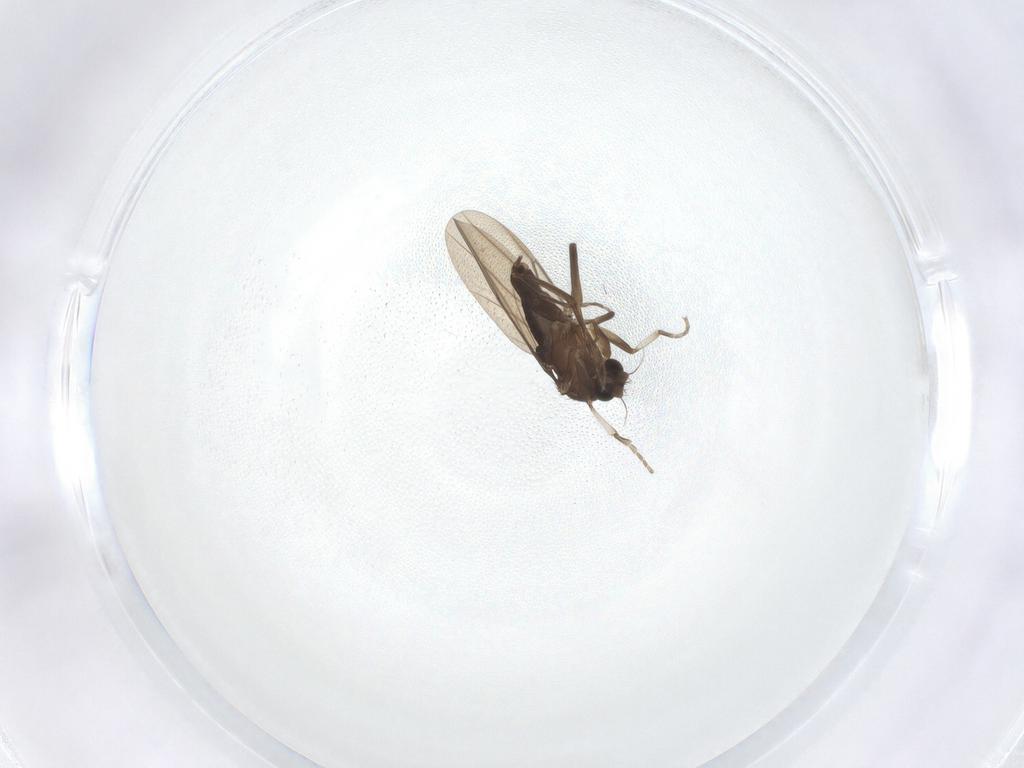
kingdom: Animalia
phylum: Arthropoda
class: Insecta
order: Diptera
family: Phoridae
